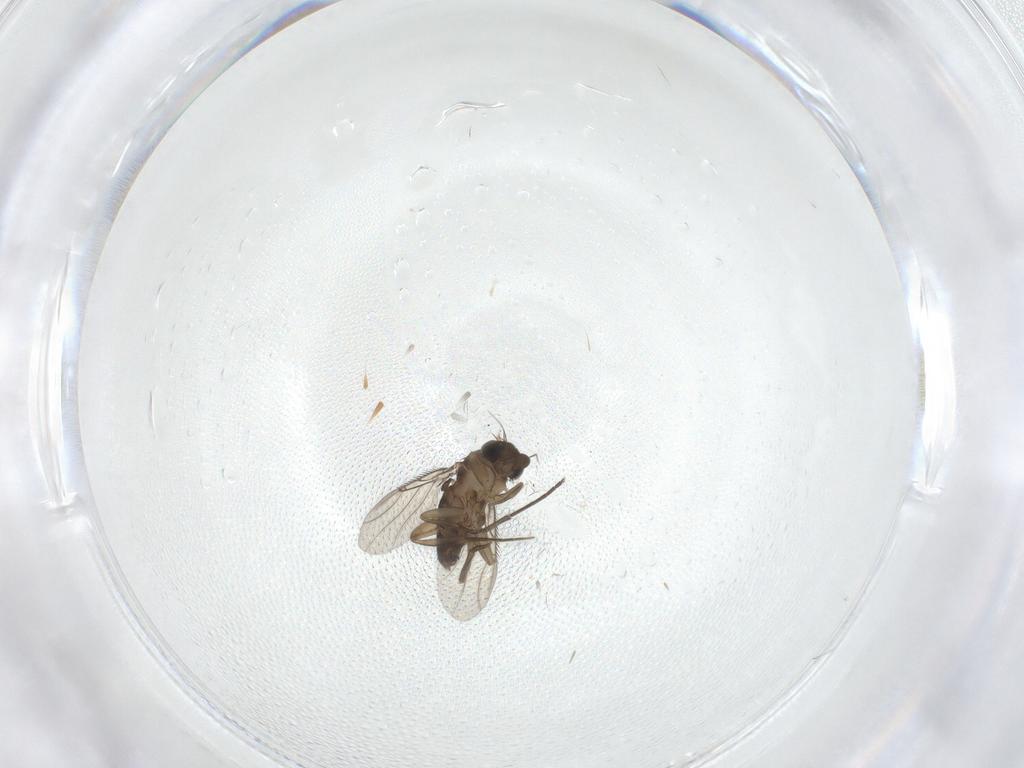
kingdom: Animalia
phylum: Arthropoda
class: Insecta
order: Diptera
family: Phoridae
